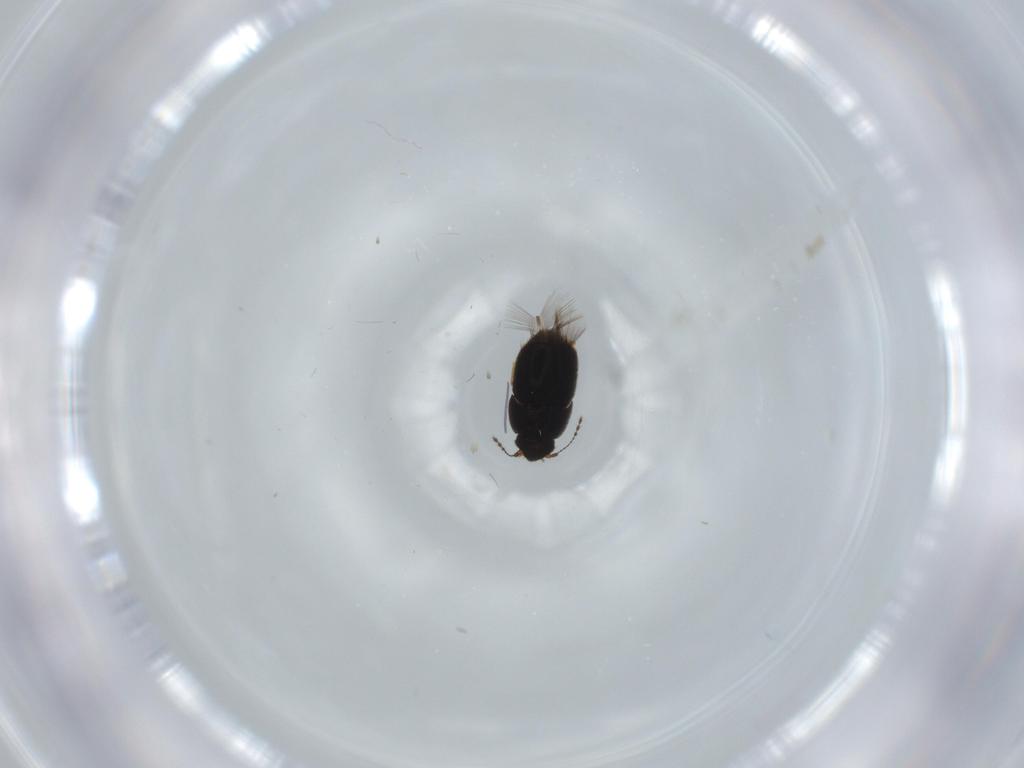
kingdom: Animalia
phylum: Arthropoda
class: Insecta
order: Coleoptera
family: Ptiliidae
